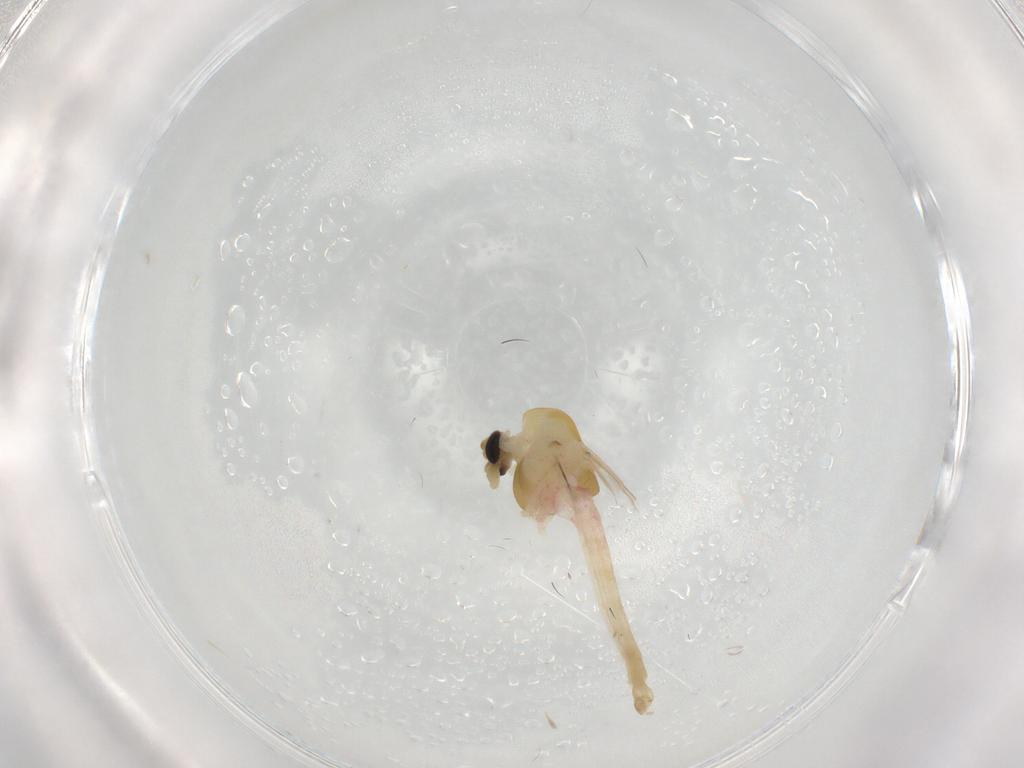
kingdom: Animalia
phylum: Arthropoda
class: Insecta
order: Diptera
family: Chironomidae
